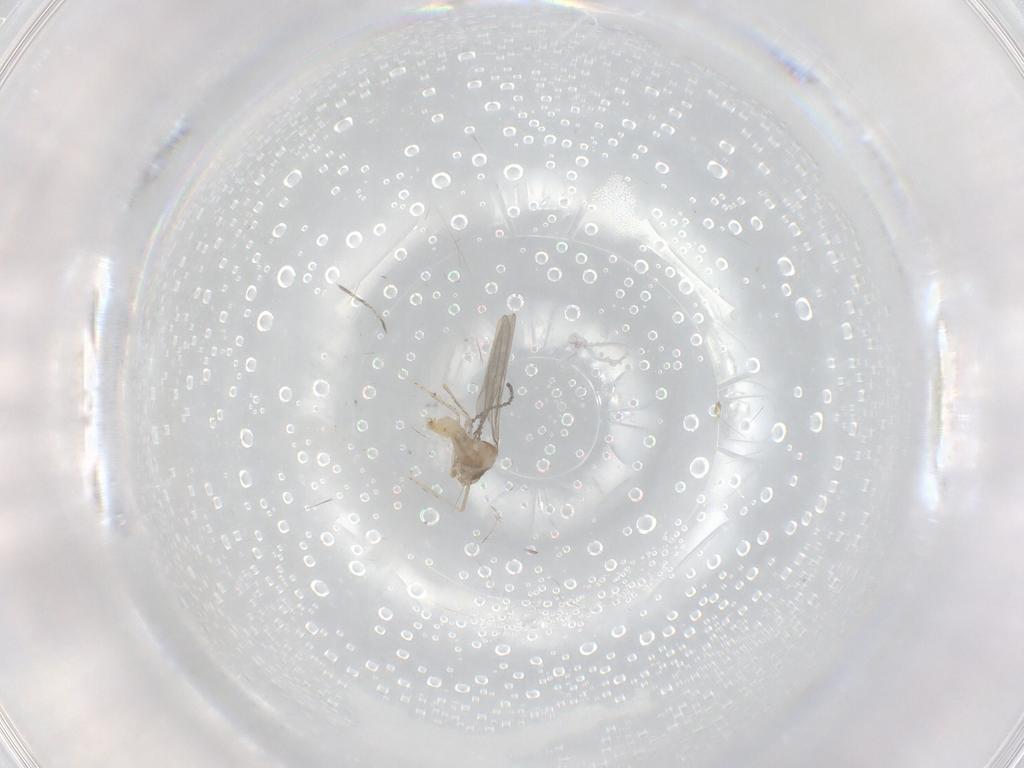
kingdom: Animalia
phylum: Arthropoda
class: Insecta
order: Diptera
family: Cecidomyiidae
